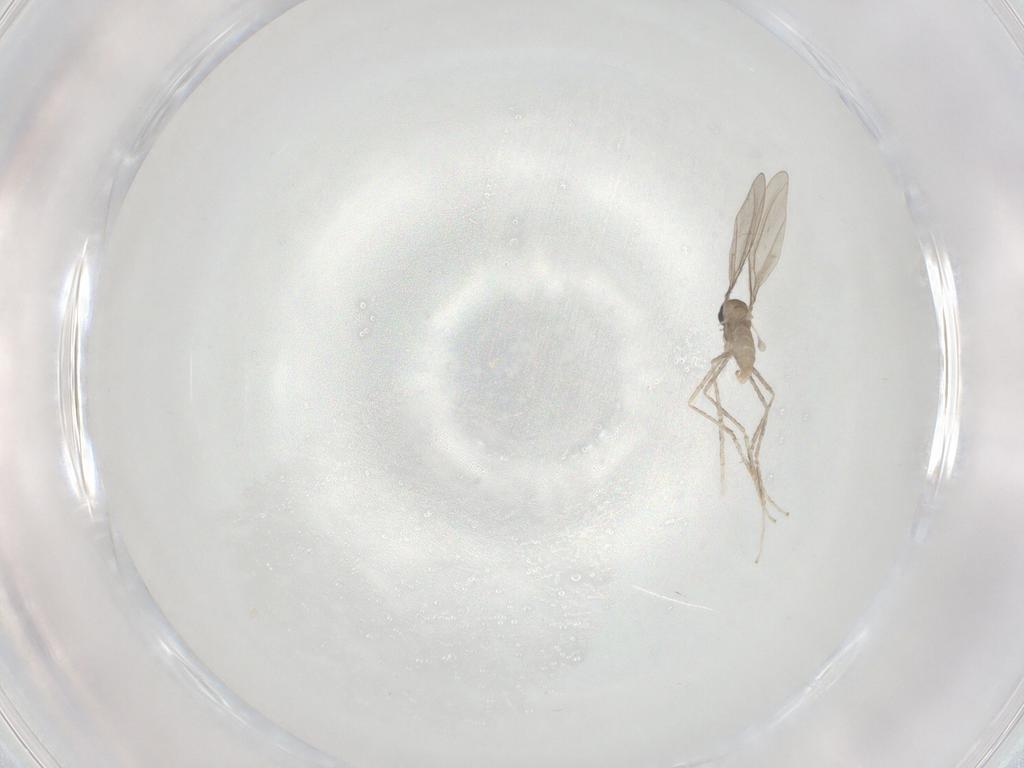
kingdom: Animalia
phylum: Arthropoda
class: Insecta
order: Diptera
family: Cecidomyiidae
